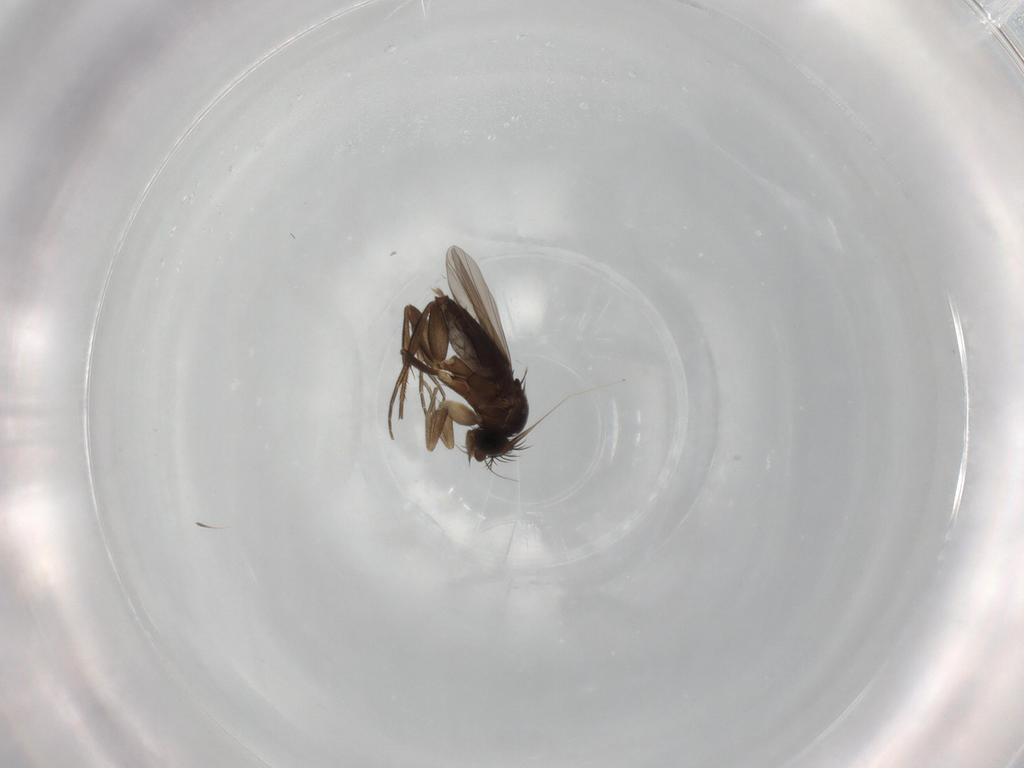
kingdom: Animalia
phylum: Arthropoda
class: Insecta
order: Diptera
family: Phoridae
